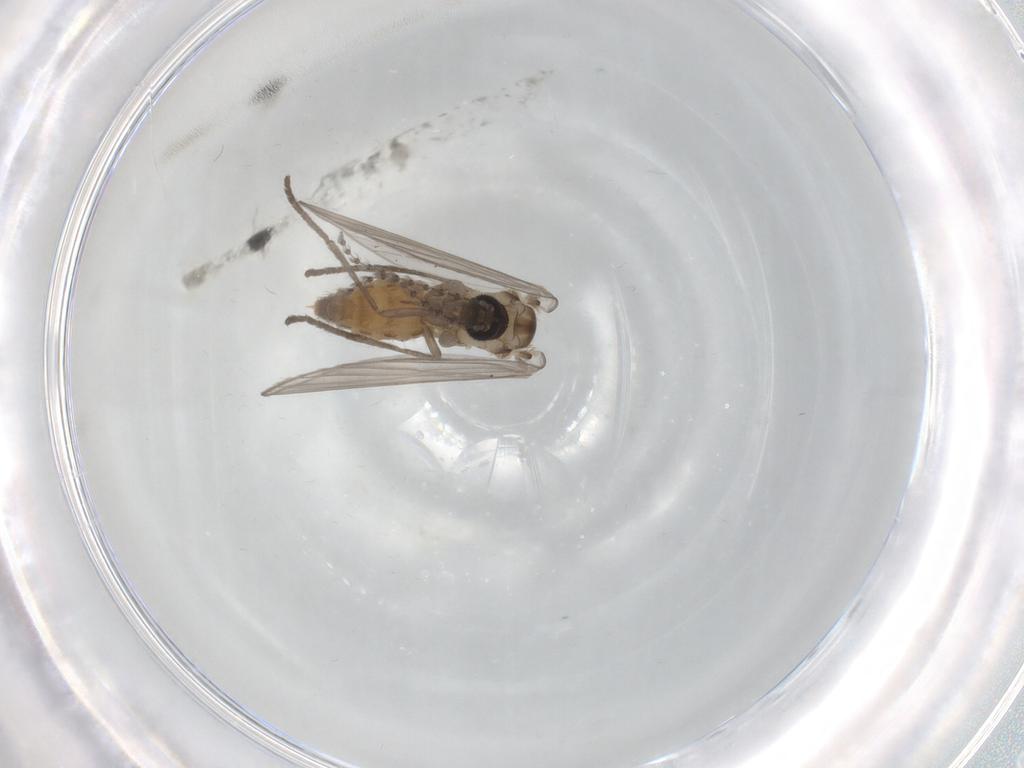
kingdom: Animalia
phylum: Arthropoda
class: Insecta
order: Diptera
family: Psychodidae
